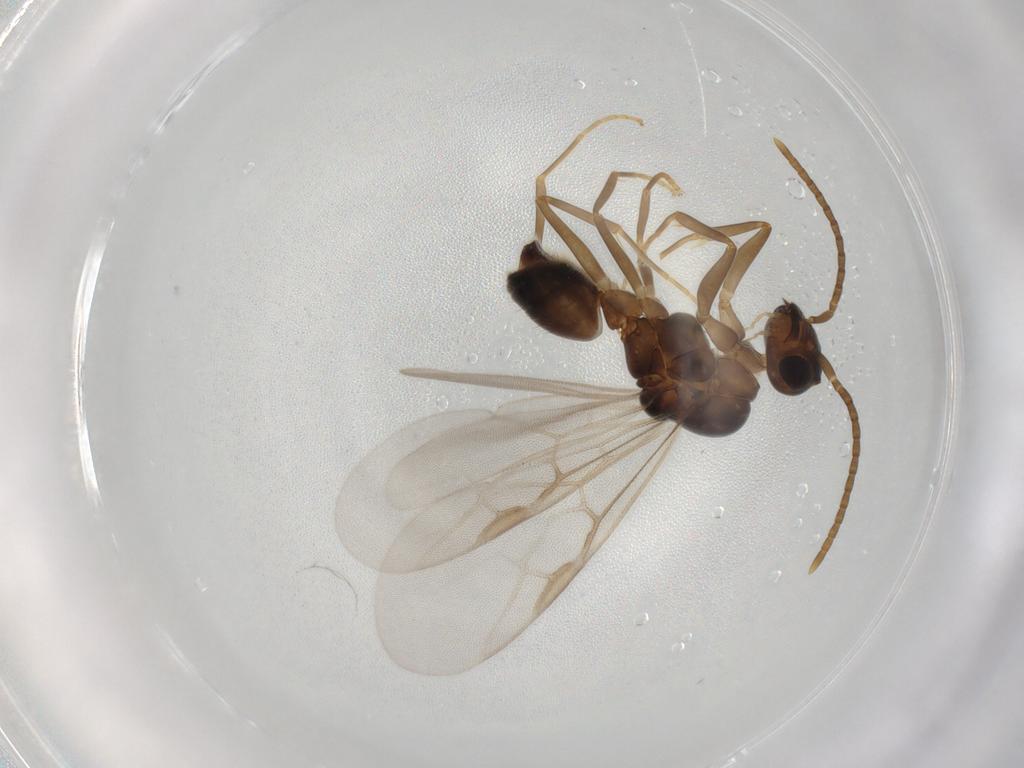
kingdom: Animalia
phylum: Arthropoda
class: Insecta
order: Hymenoptera
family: Formicidae
